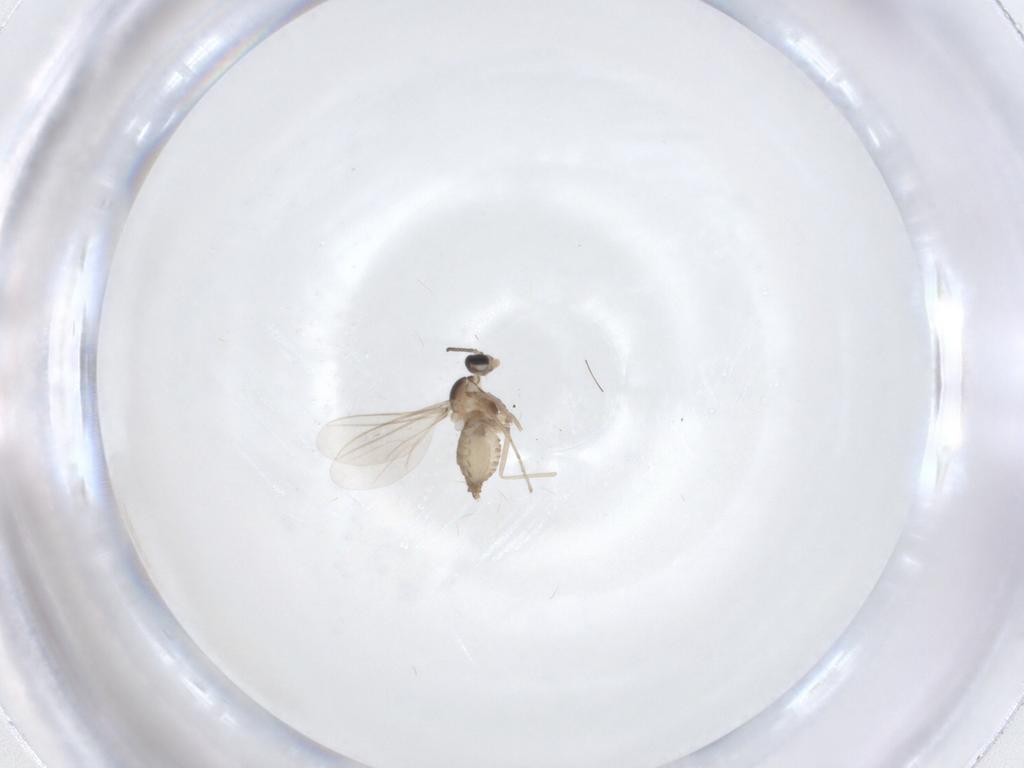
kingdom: Animalia
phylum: Arthropoda
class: Insecta
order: Diptera
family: Cecidomyiidae
